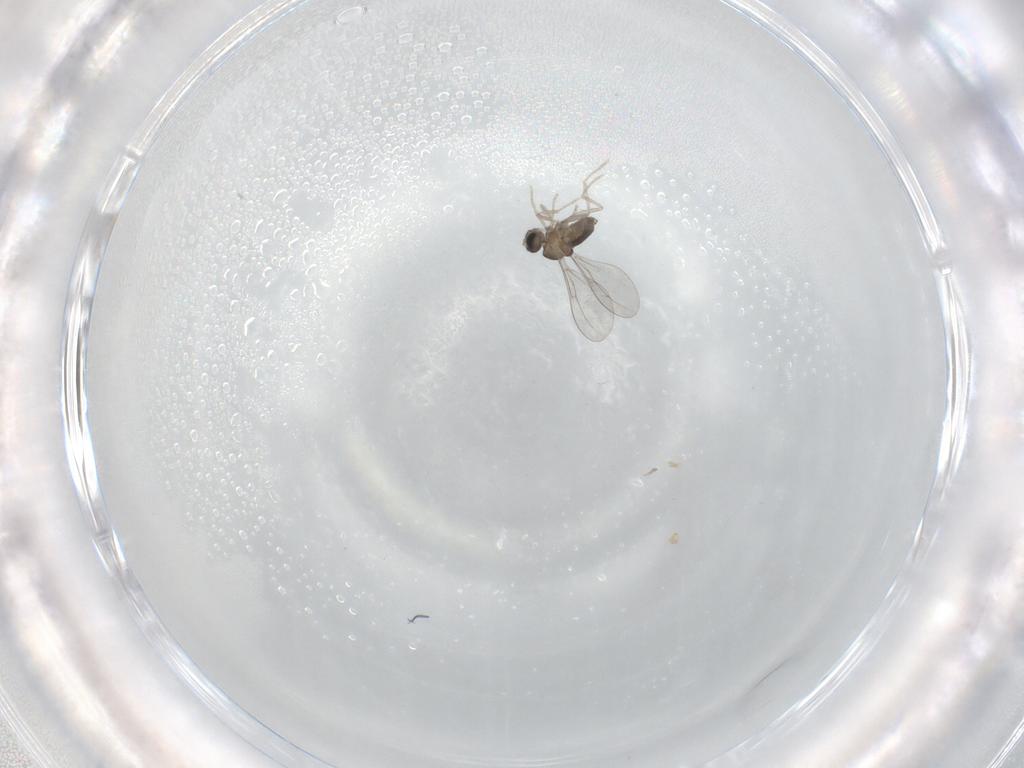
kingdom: Animalia
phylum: Arthropoda
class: Insecta
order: Diptera
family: Cecidomyiidae
